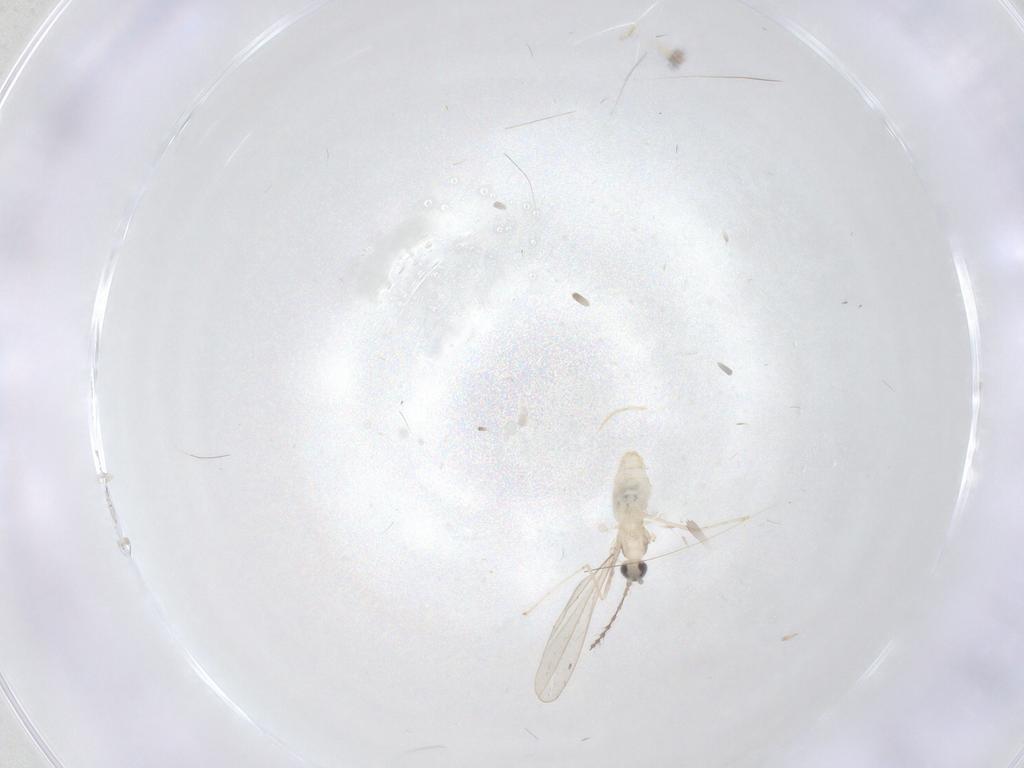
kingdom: Animalia
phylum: Arthropoda
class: Insecta
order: Diptera
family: Cecidomyiidae
